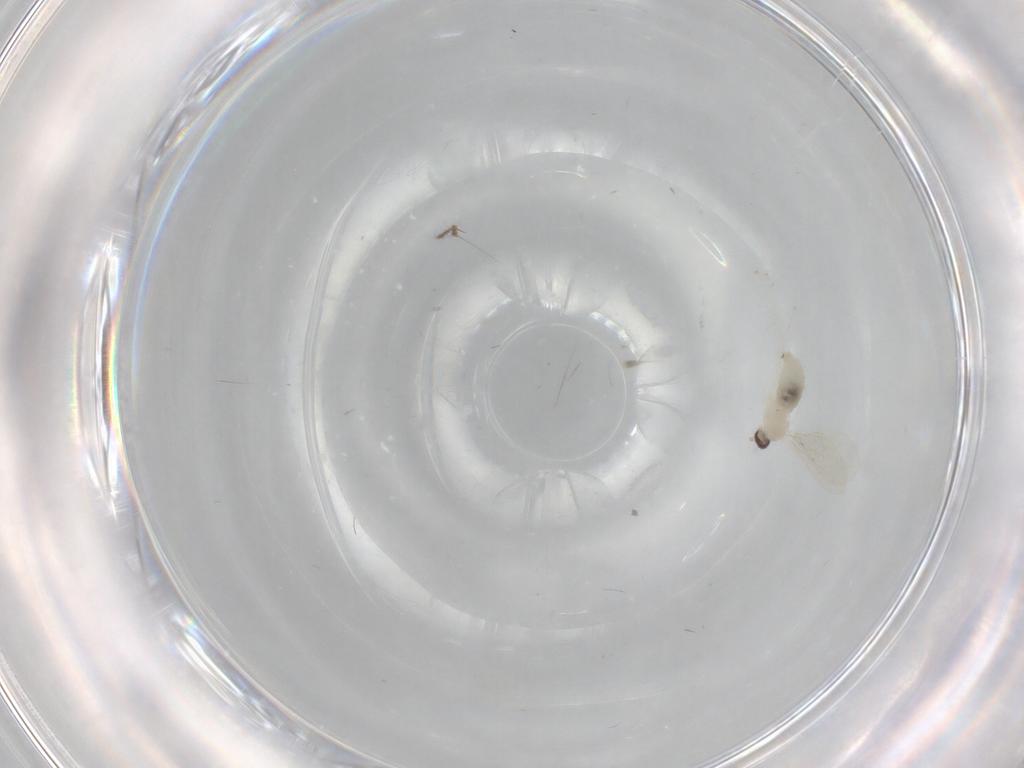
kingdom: Animalia
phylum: Arthropoda
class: Insecta
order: Diptera
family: Cecidomyiidae
